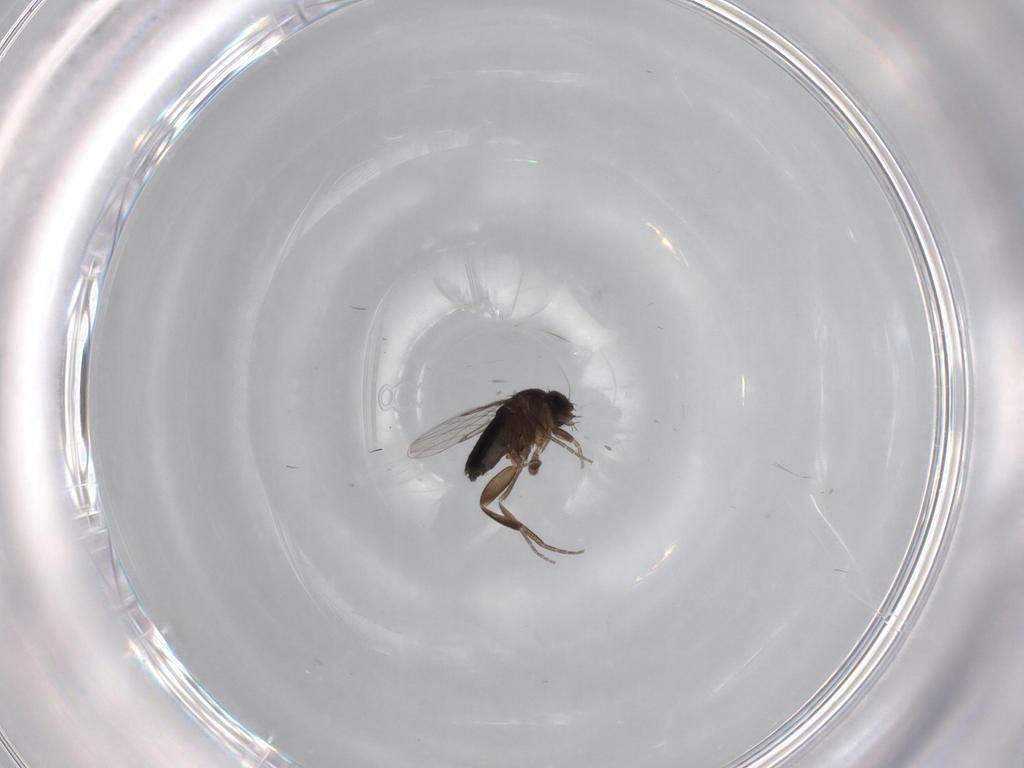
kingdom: Animalia
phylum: Arthropoda
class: Insecta
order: Diptera
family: Phoridae
